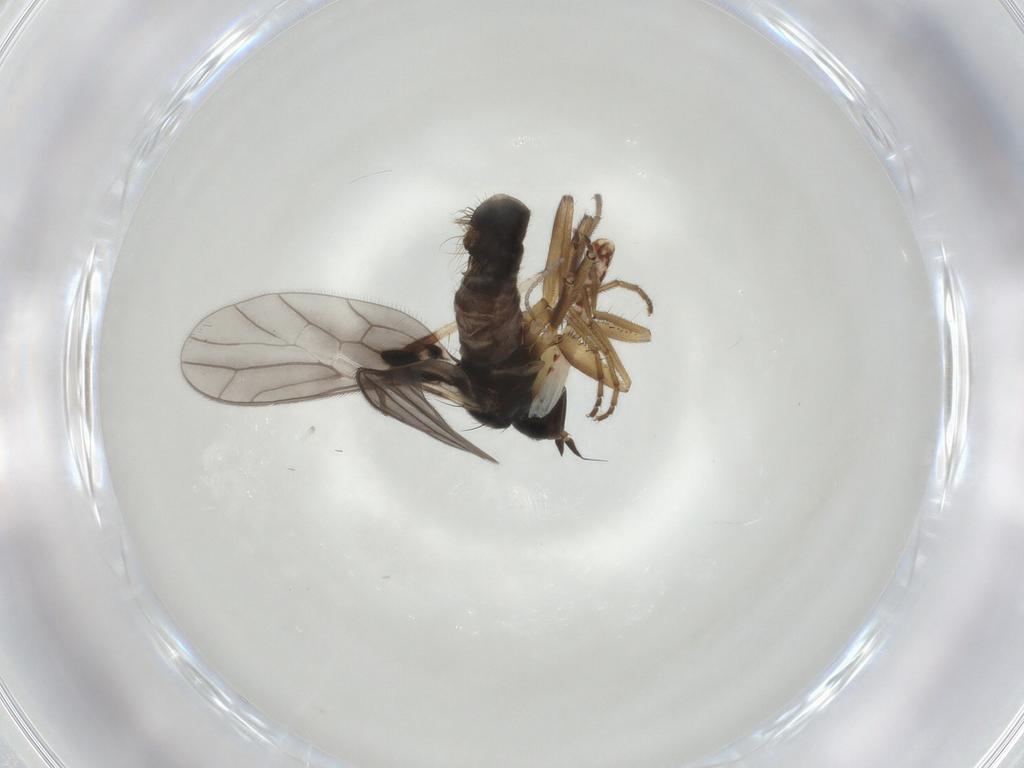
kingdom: Animalia
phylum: Arthropoda
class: Insecta
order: Diptera
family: Empididae
